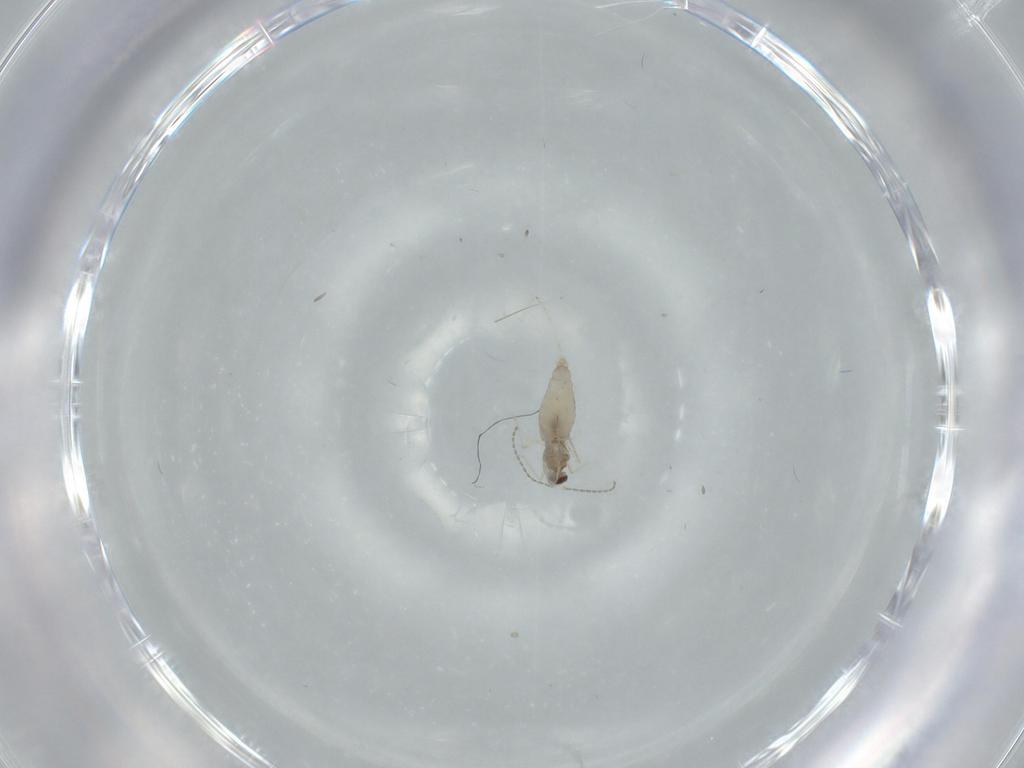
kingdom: Animalia
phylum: Arthropoda
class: Insecta
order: Diptera
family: Cecidomyiidae
